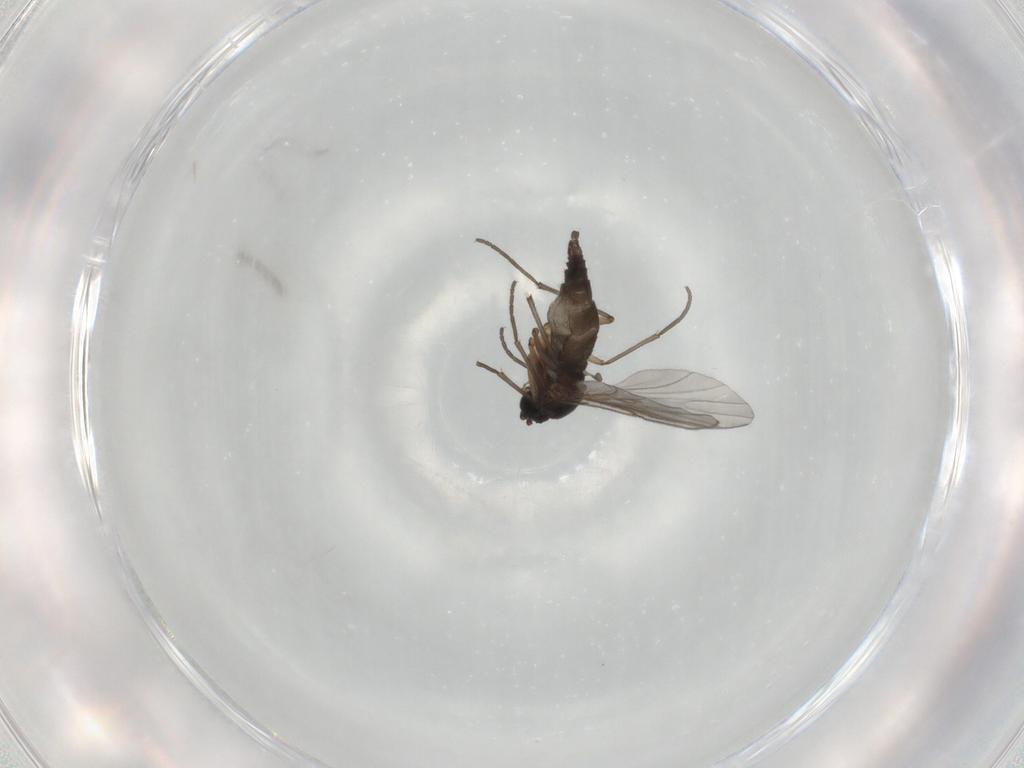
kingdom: Animalia
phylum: Arthropoda
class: Insecta
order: Diptera
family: Sciaridae
